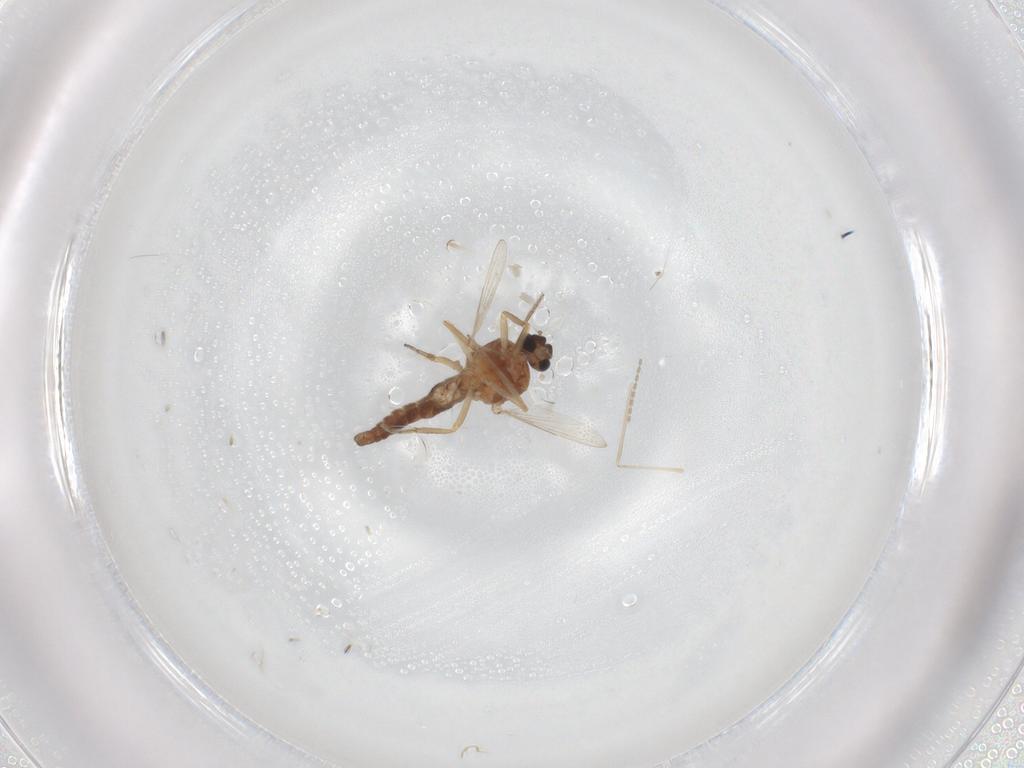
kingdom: Animalia
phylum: Arthropoda
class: Insecta
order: Diptera
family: Ceratopogonidae
